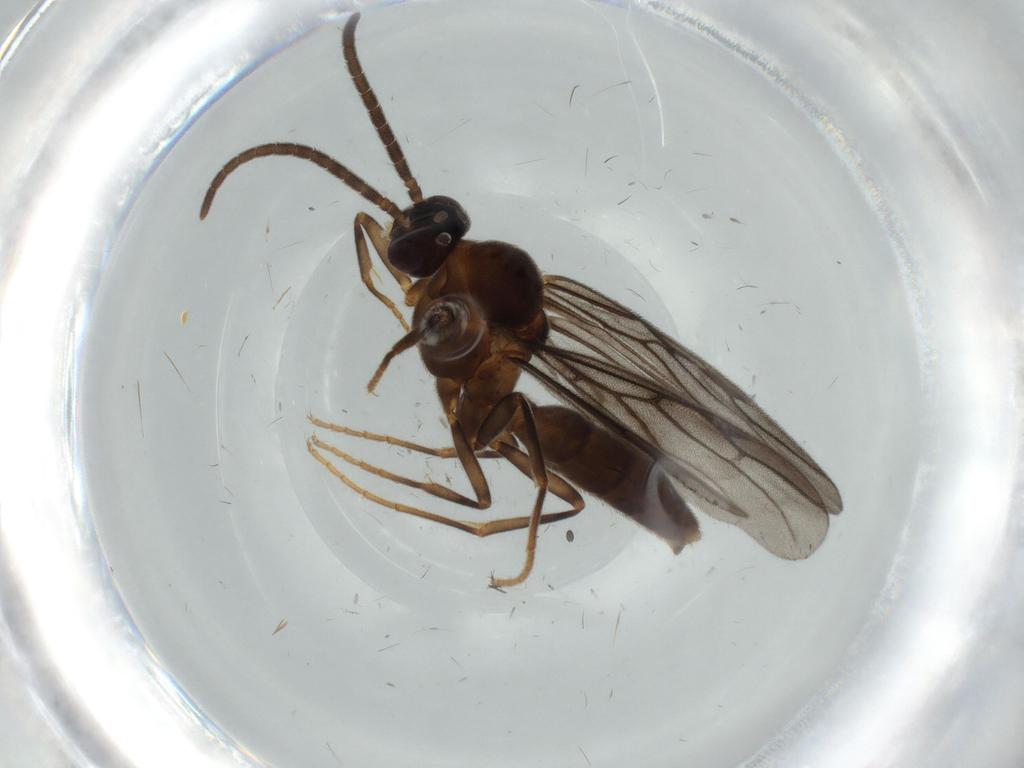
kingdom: Animalia
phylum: Arthropoda
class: Insecta
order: Hymenoptera
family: Formicidae
